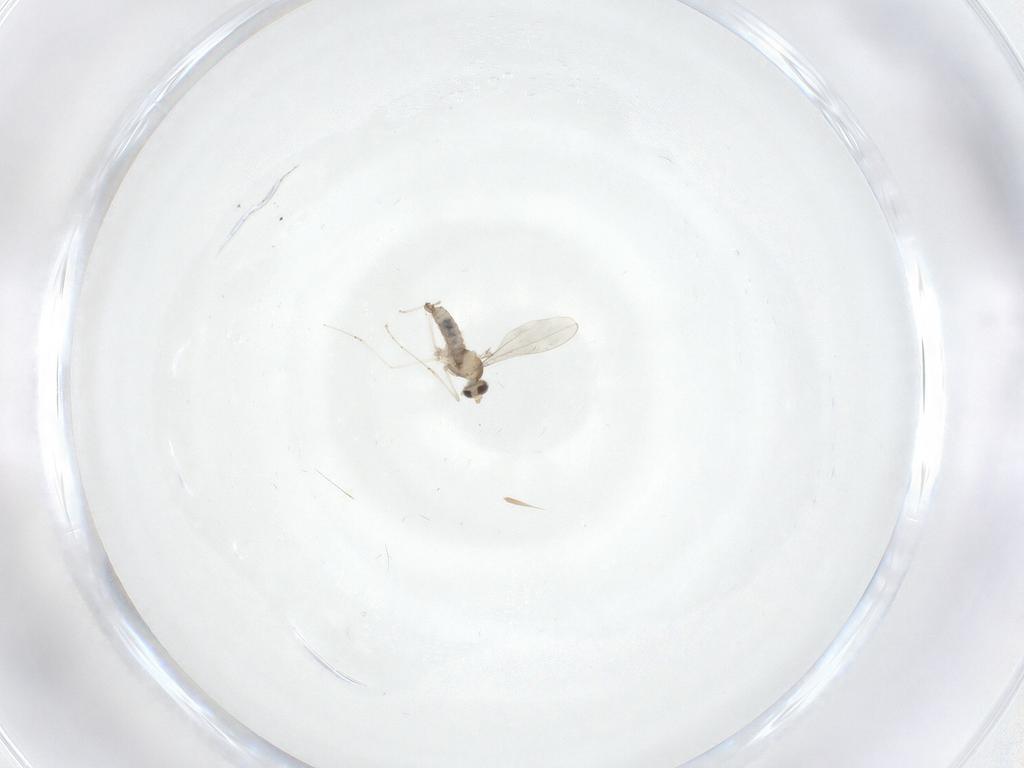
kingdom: Animalia
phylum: Arthropoda
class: Insecta
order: Diptera
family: Cecidomyiidae
